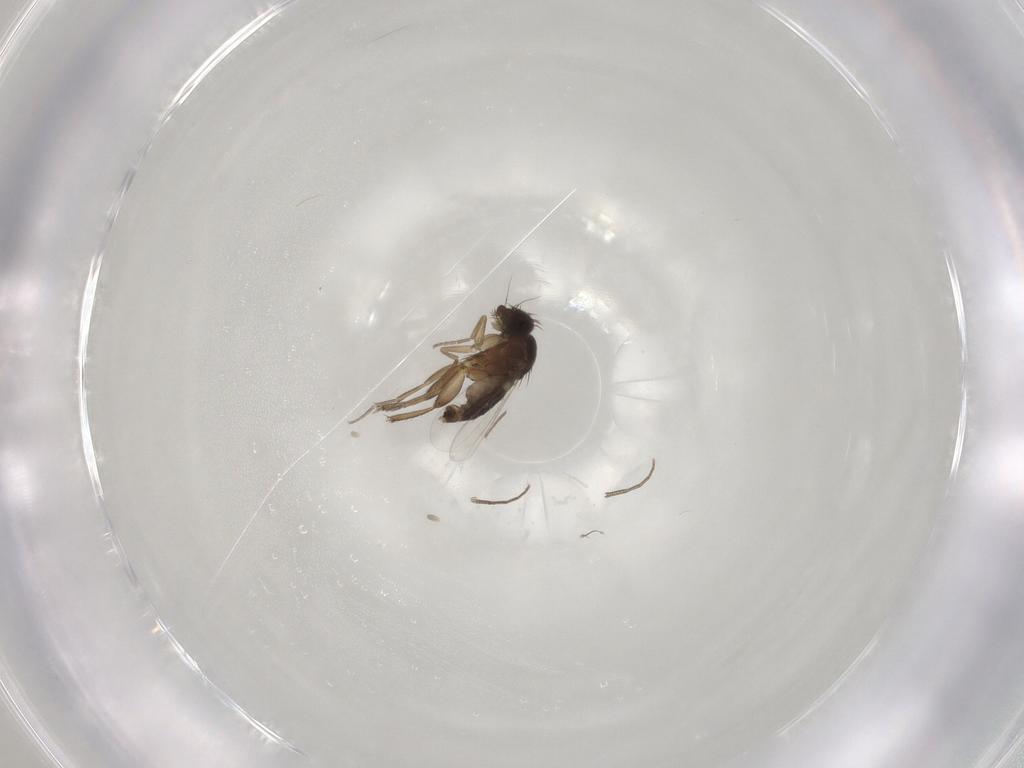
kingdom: Animalia
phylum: Arthropoda
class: Insecta
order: Diptera
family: Phoridae
